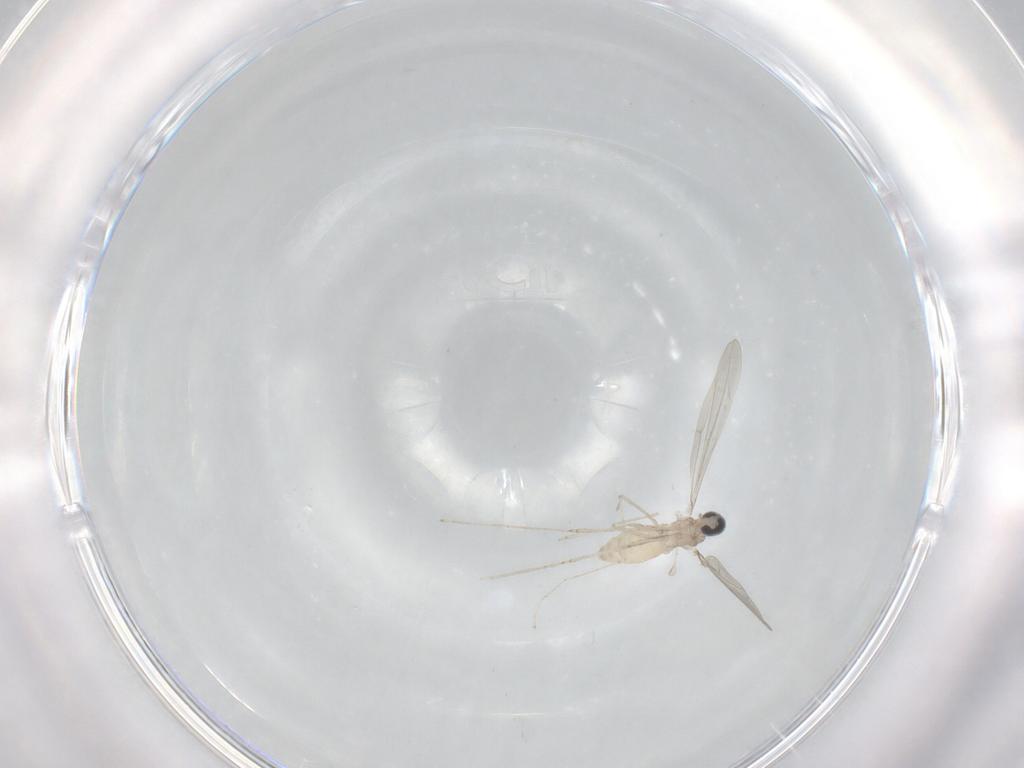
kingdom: Animalia
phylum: Arthropoda
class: Insecta
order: Diptera
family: Cecidomyiidae
